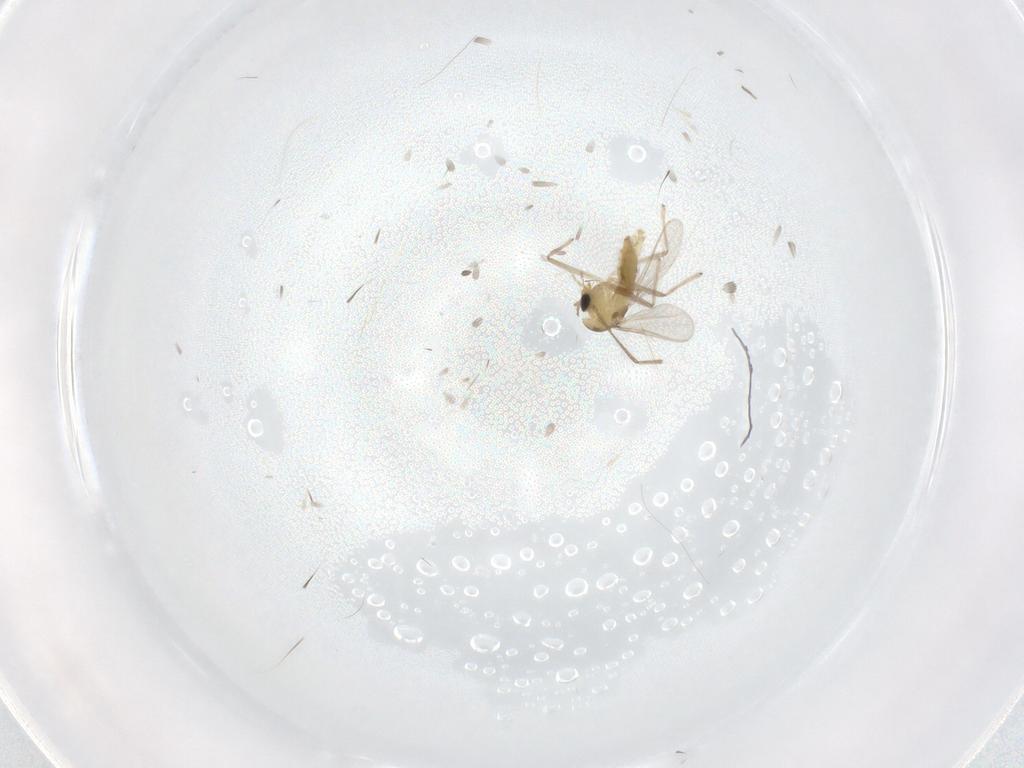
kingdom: Animalia
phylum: Arthropoda
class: Insecta
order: Diptera
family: Chironomidae
